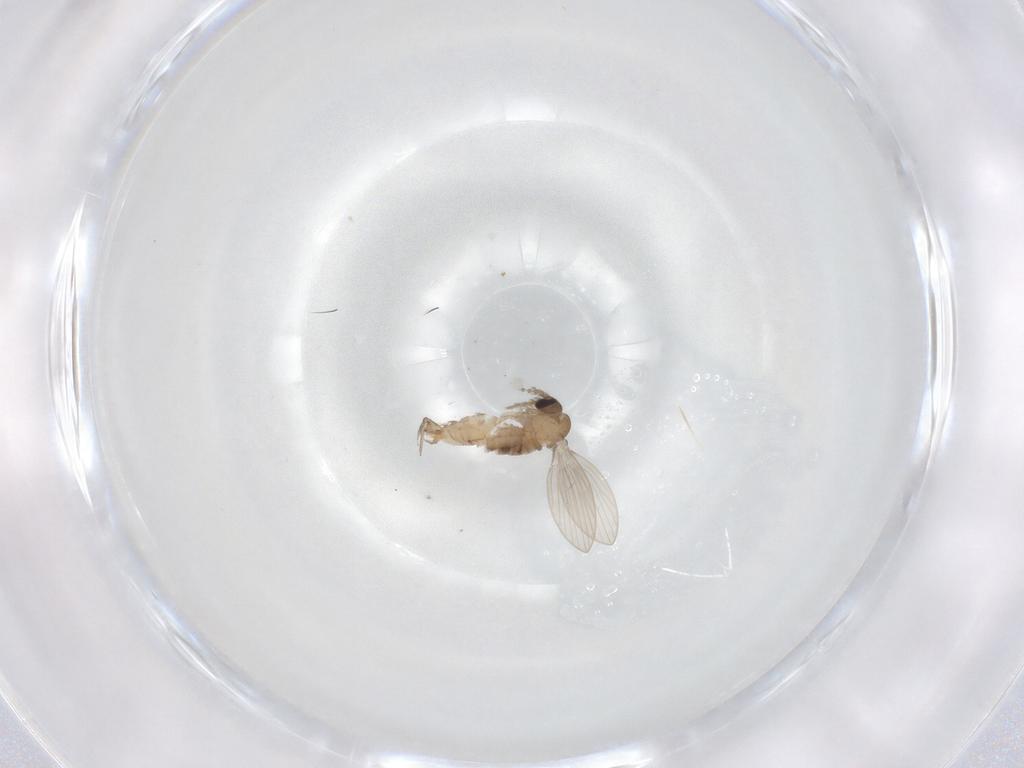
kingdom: Animalia
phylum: Arthropoda
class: Insecta
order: Diptera
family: Psychodidae
